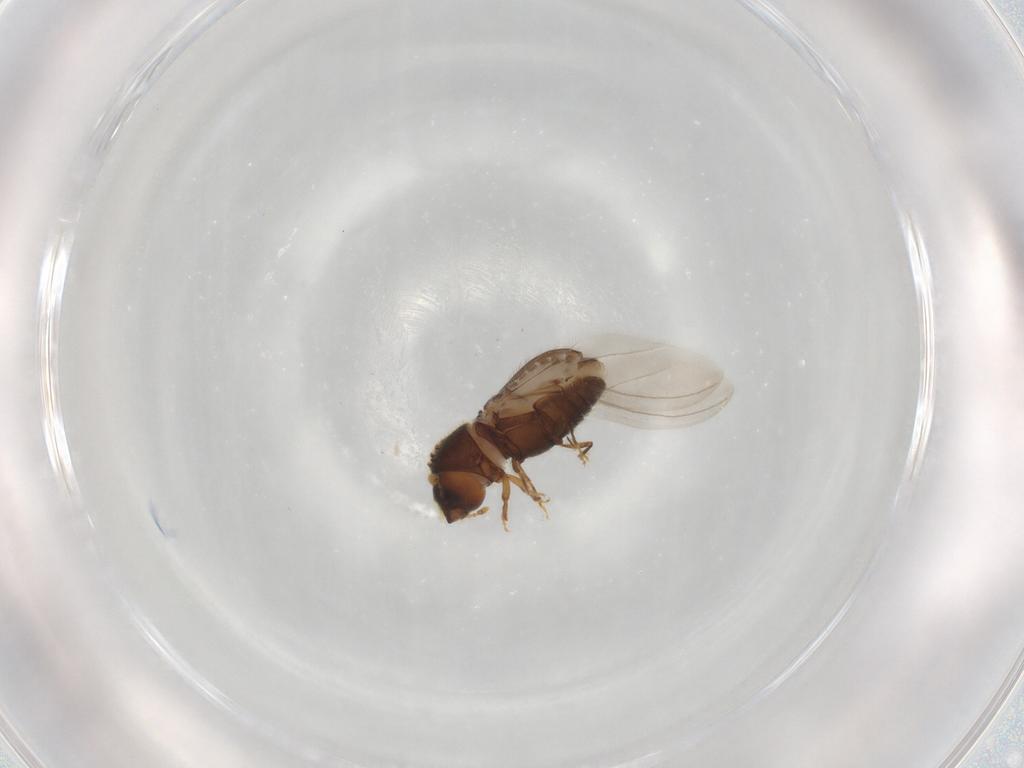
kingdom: Animalia
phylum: Arthropoda
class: Insecta
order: Coleoptera
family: Curculionidae
